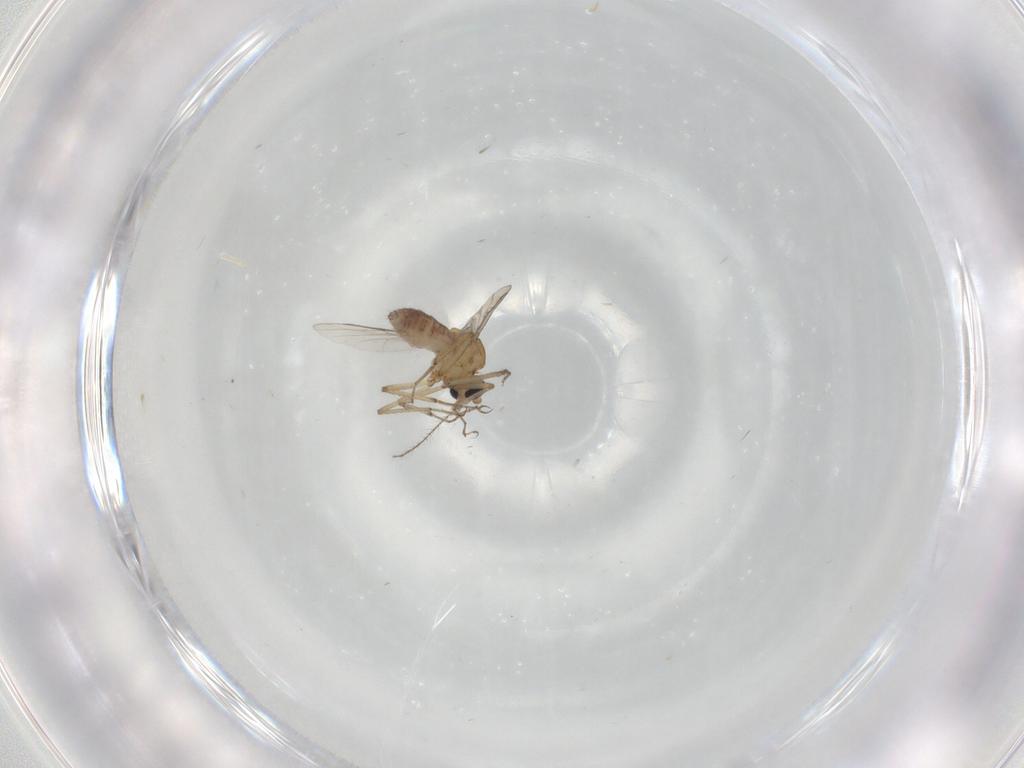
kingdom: Animalia
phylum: Arthropoda
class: Insecta
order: Diptera
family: Ceratopogonidae
